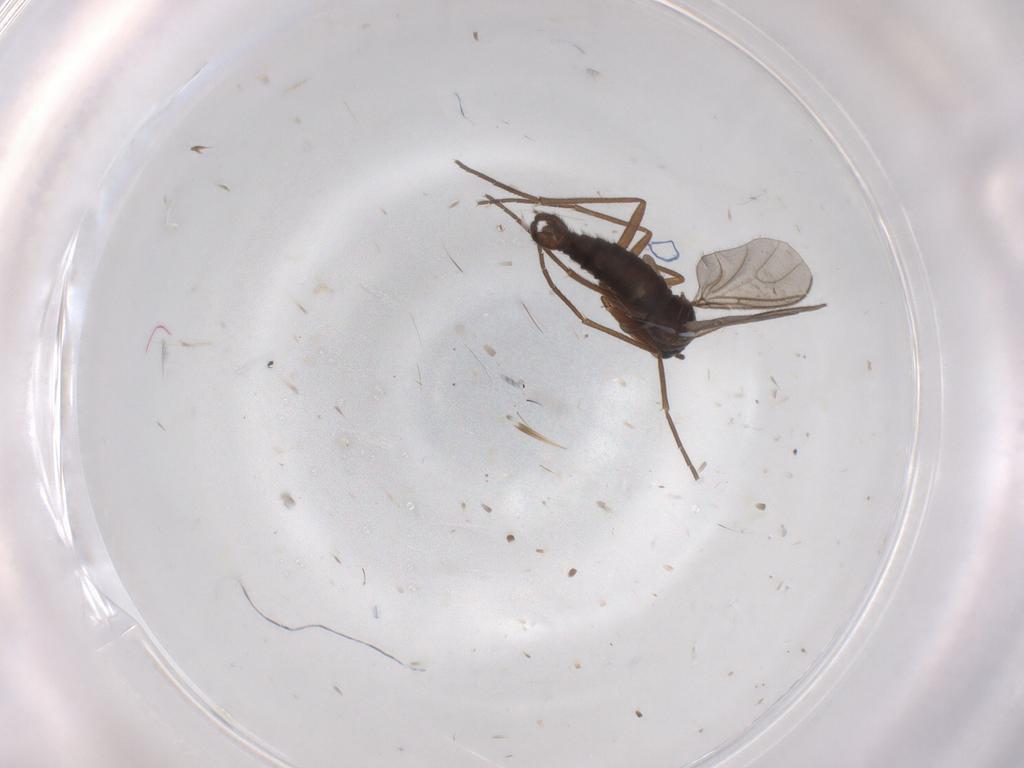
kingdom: Animalia
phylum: Arthropoda
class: Insecta
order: Diptera
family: Sciaridae
